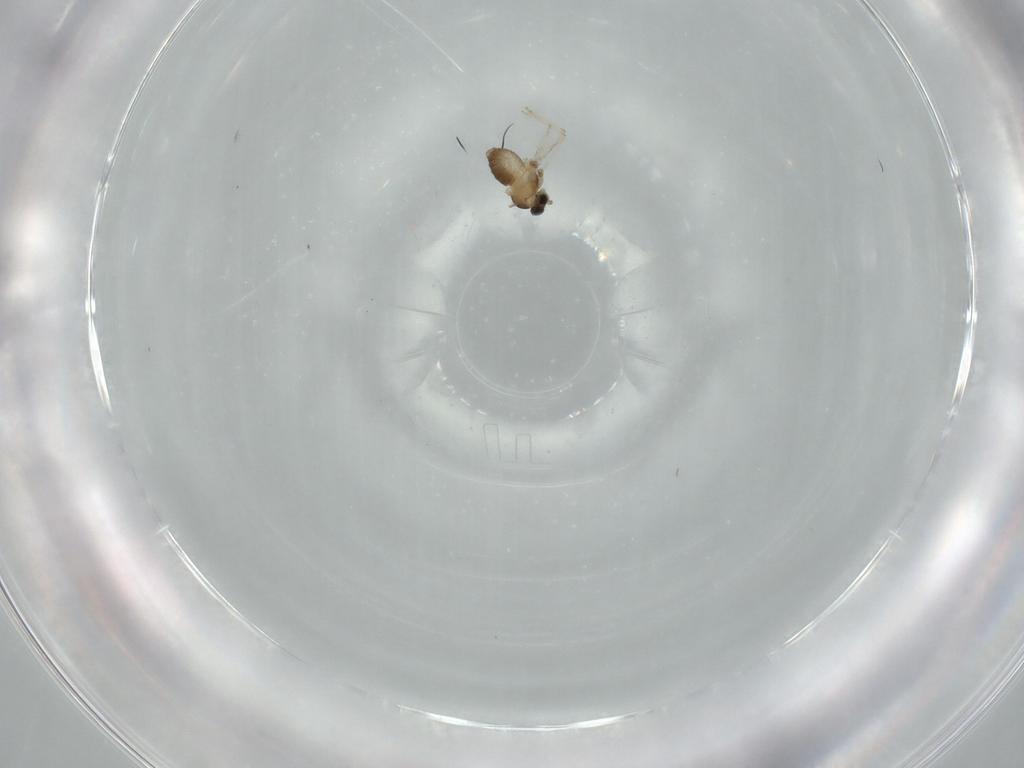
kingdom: Animalia
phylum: Arthropoda
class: Insecta
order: Diptera
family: Cecidomyiidae
